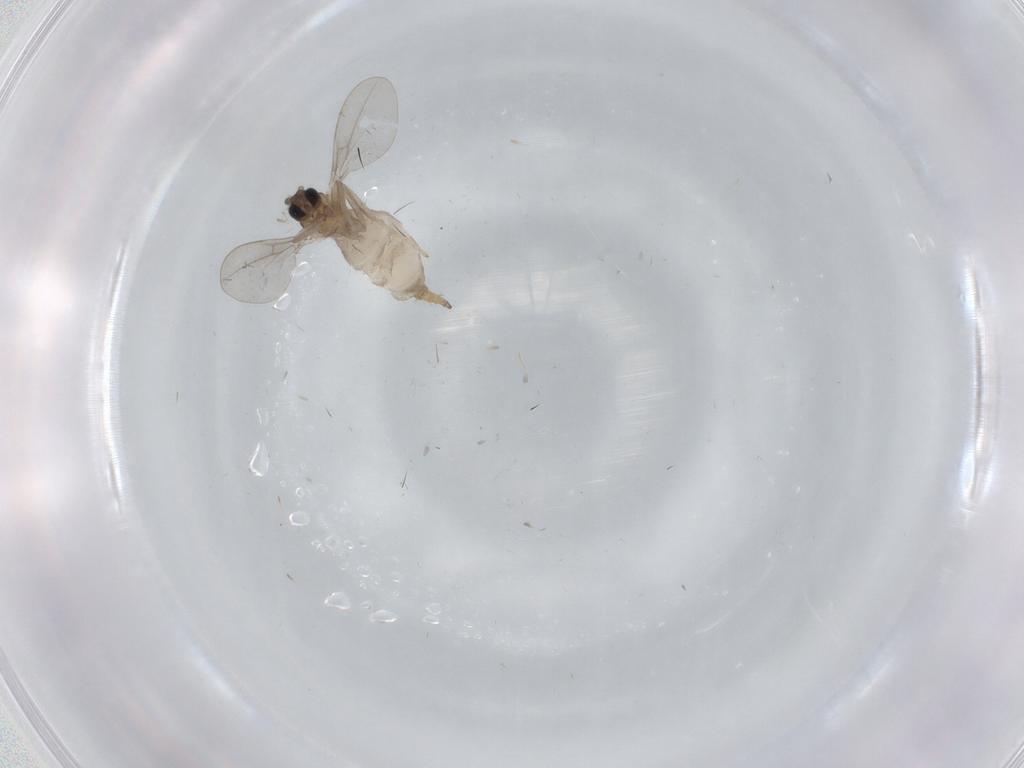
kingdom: Animalia
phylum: Arthropoda
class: Insecta
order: Diptera
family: Cecidomyiidae
